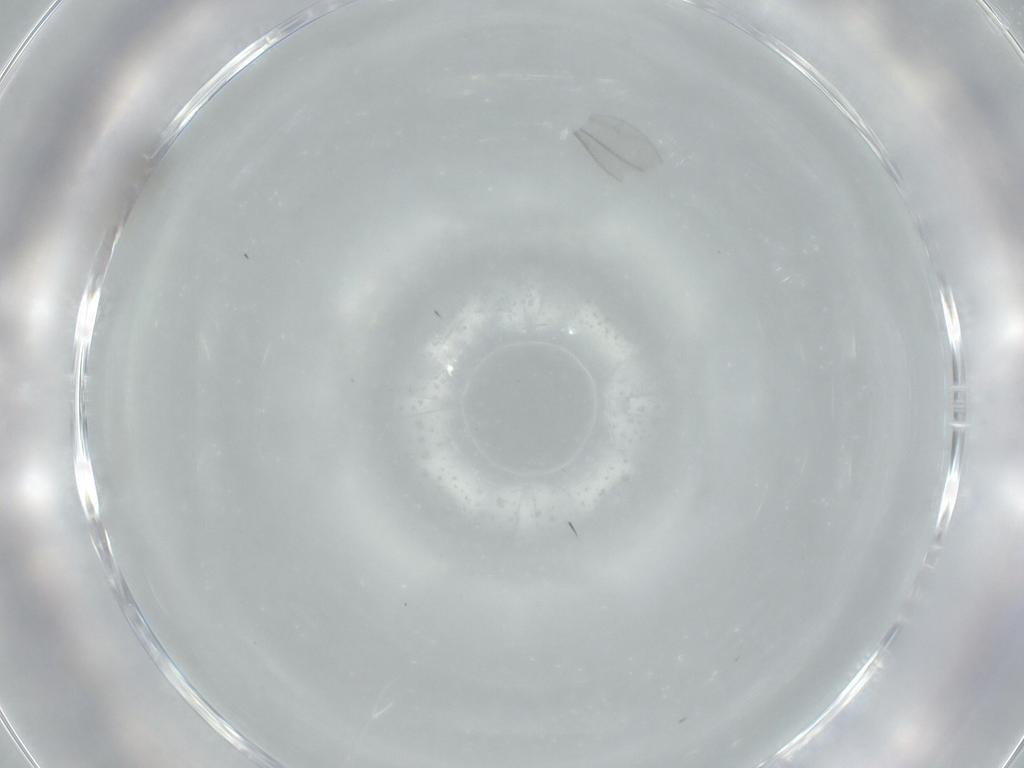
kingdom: Animalia
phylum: Arthropoda
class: Insecta
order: Diptera
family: Cecidomyiidae
